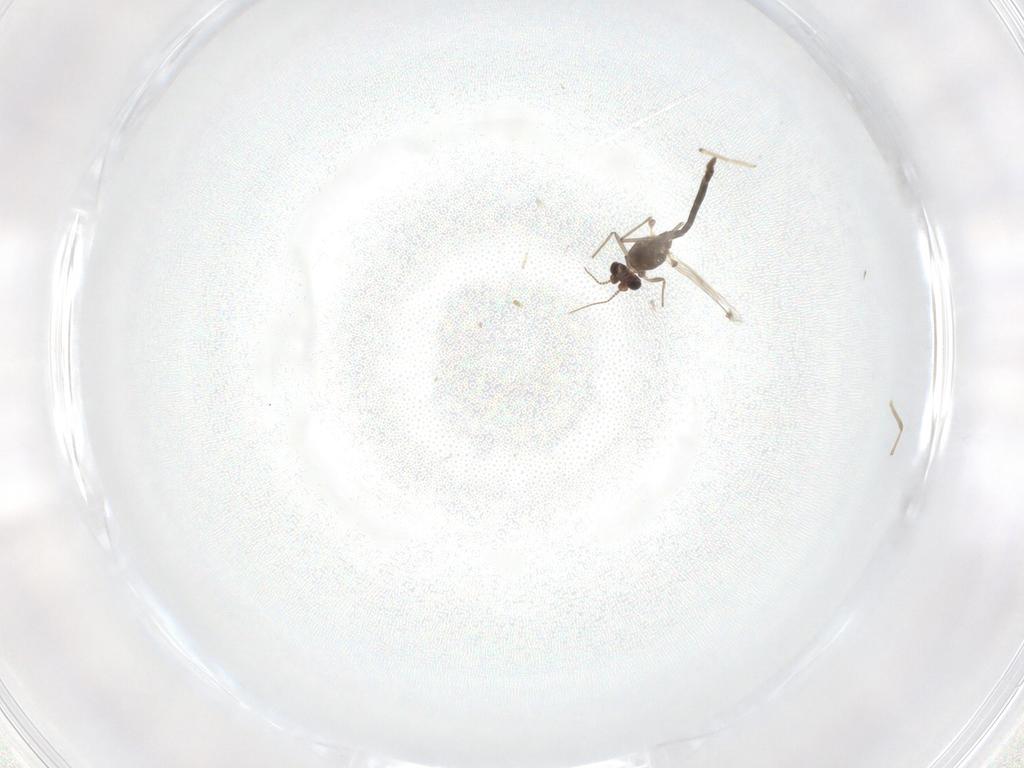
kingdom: Animalia
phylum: Arthropoda
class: Insecta
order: Diptera
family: Chironomidae
